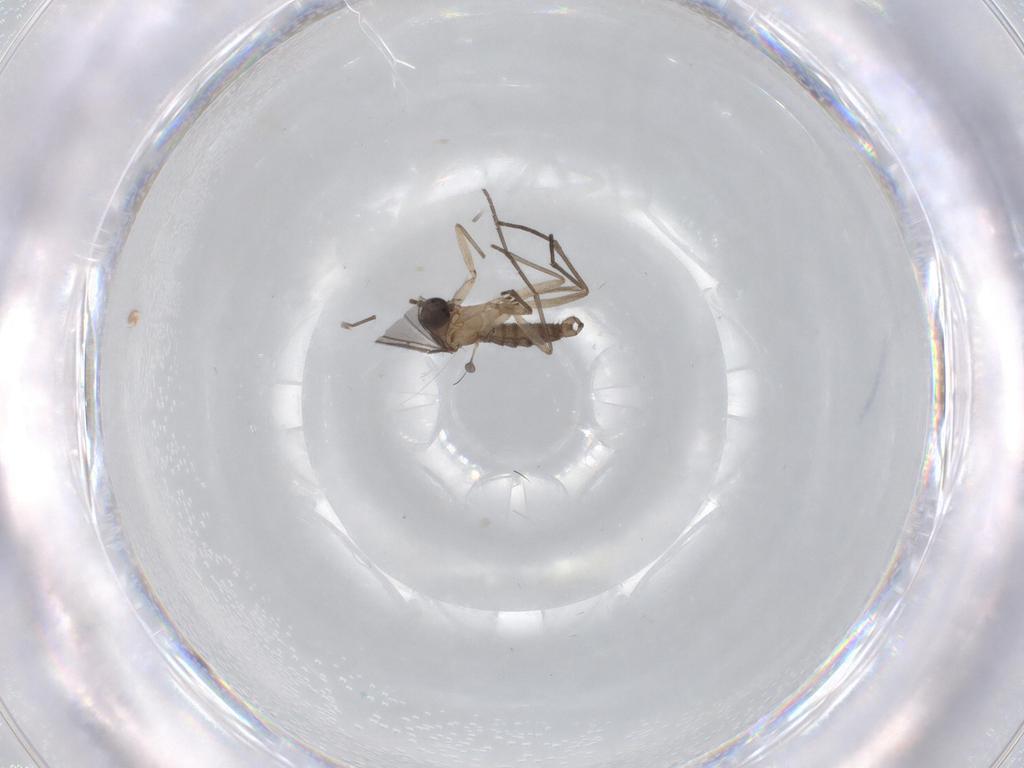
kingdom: Animalia
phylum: Arthropoda
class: Insecta
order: Diptera
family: Sciaridae
